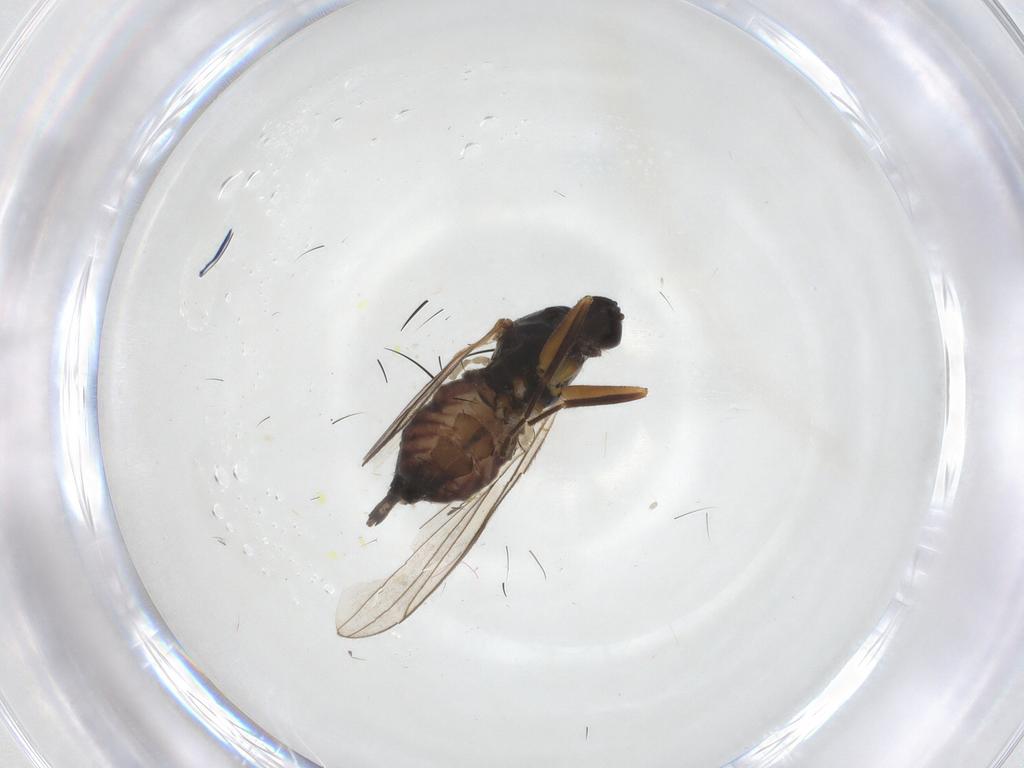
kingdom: Animalia
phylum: Arthropoda
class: Insecta
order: Diptera
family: Hybotidae
